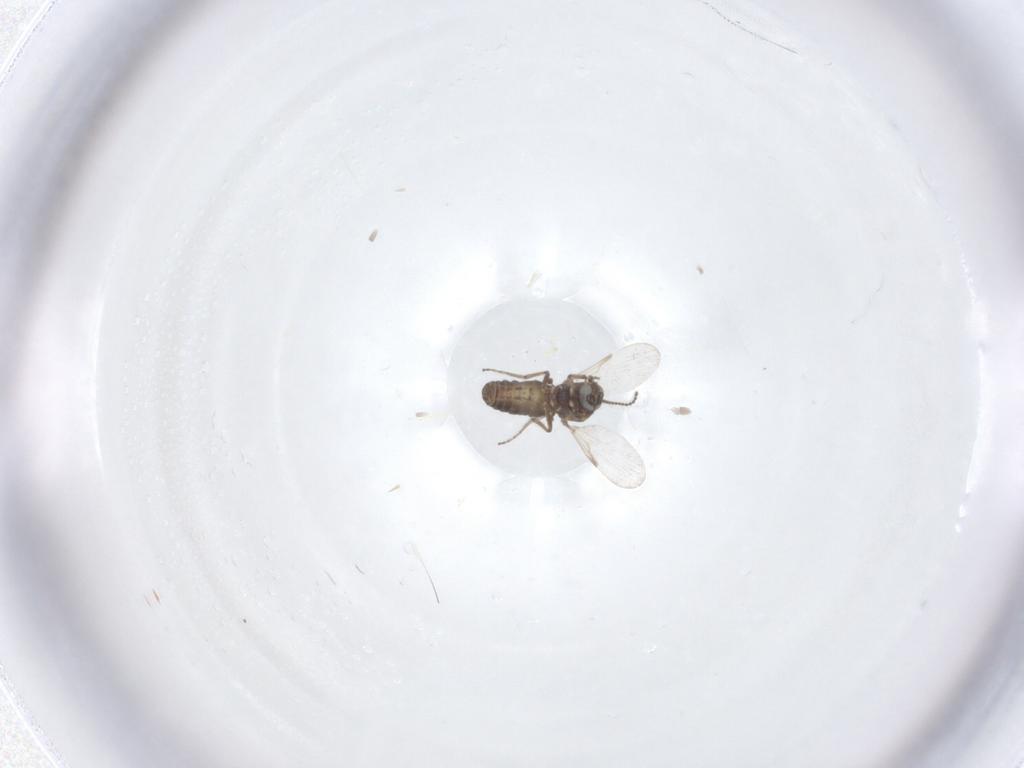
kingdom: Animalia
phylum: Arthropoda
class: Insecta
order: Diptera
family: Ceratopogonidae
